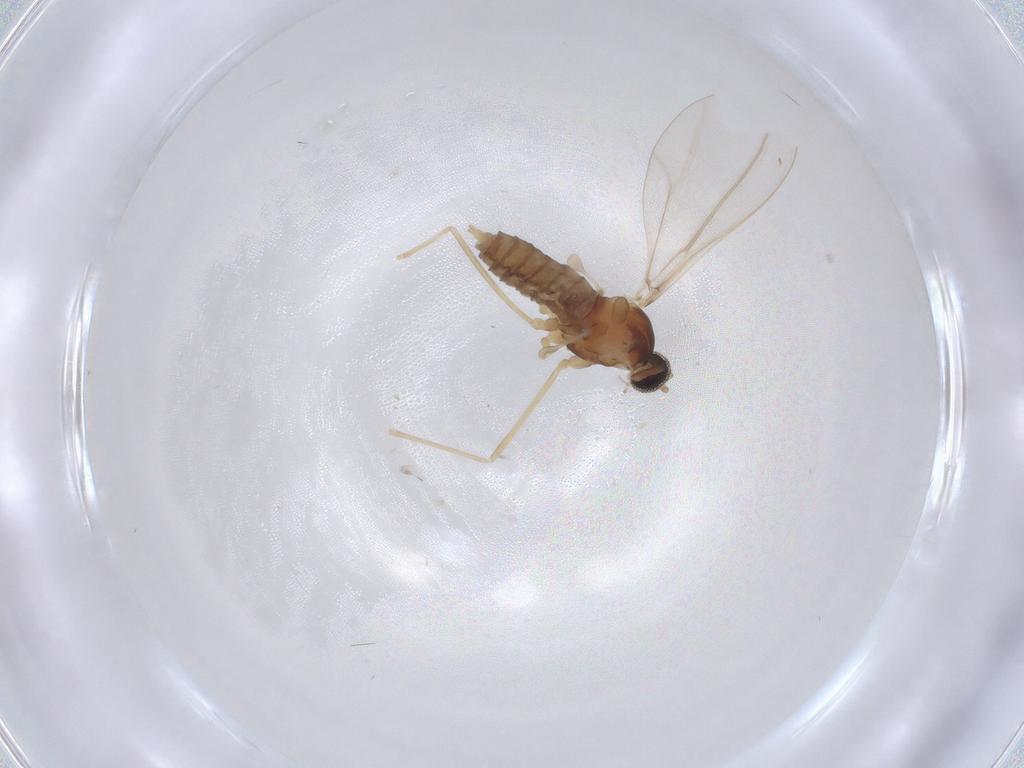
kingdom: Animalia
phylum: Arthropoda
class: Insecta
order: Diptera
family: Cecidomyiidae
